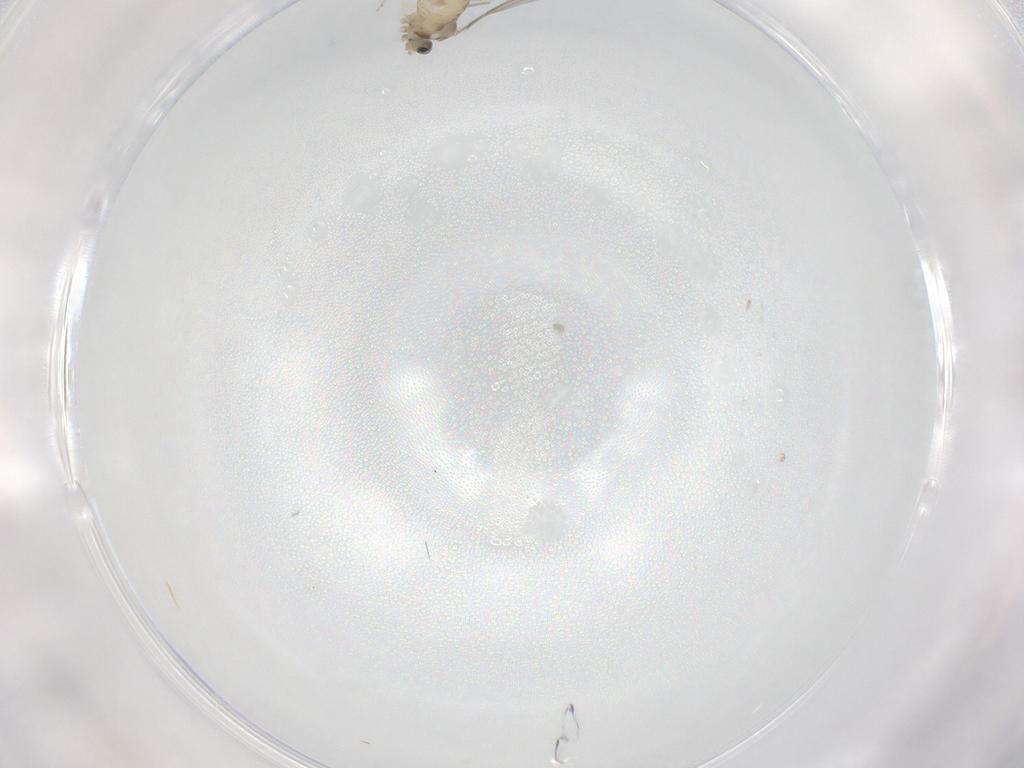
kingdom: Animalia
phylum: Arthropoda
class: Insecta
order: Diptera
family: Cecidomyiidae
